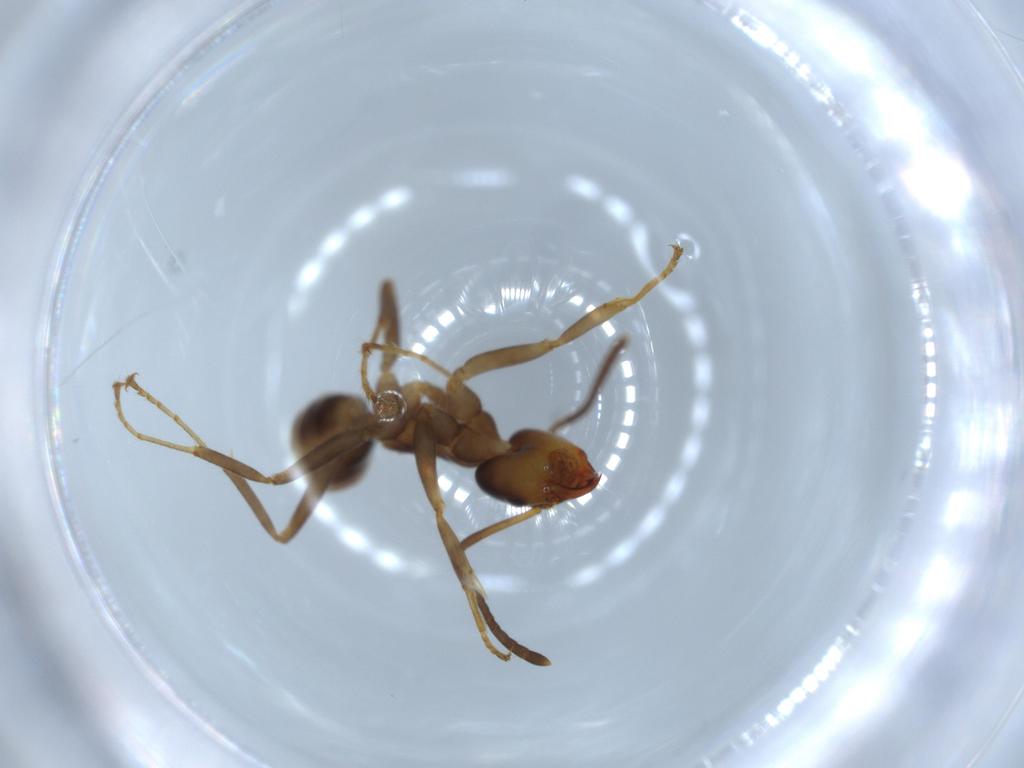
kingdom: Animalia
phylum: Arthropoda
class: Insecta
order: Hymenoptera
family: Formicidae
